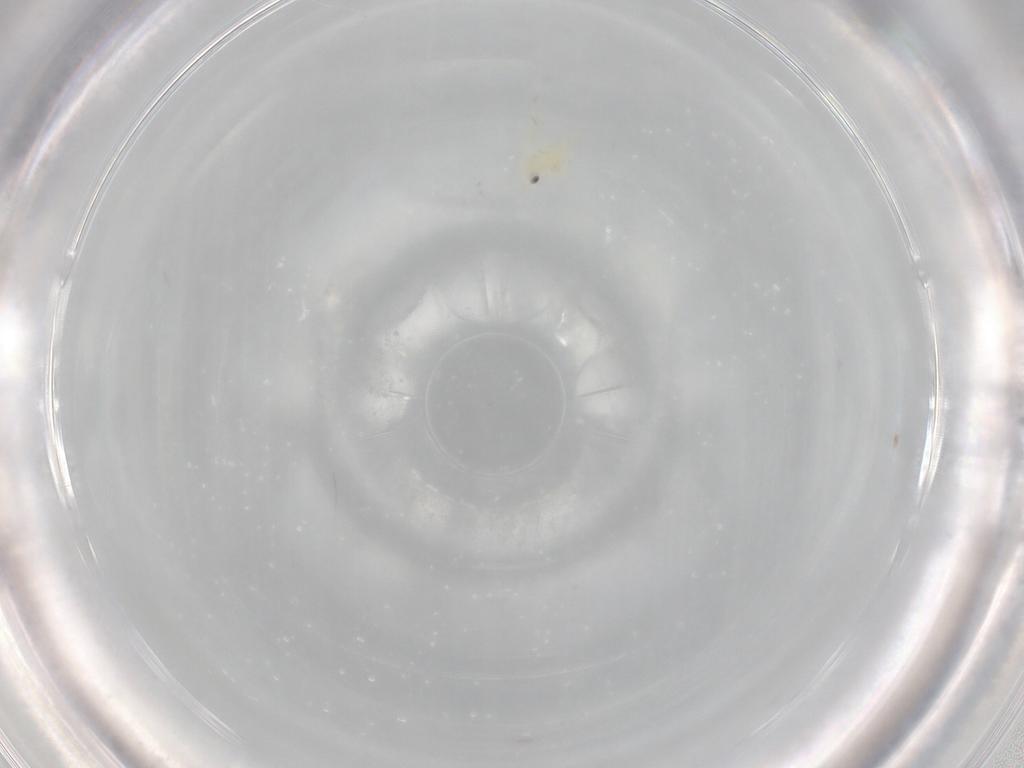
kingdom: Animalia
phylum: Arthropoda
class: Insecta
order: Hemiptera
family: Aleyrodidae
